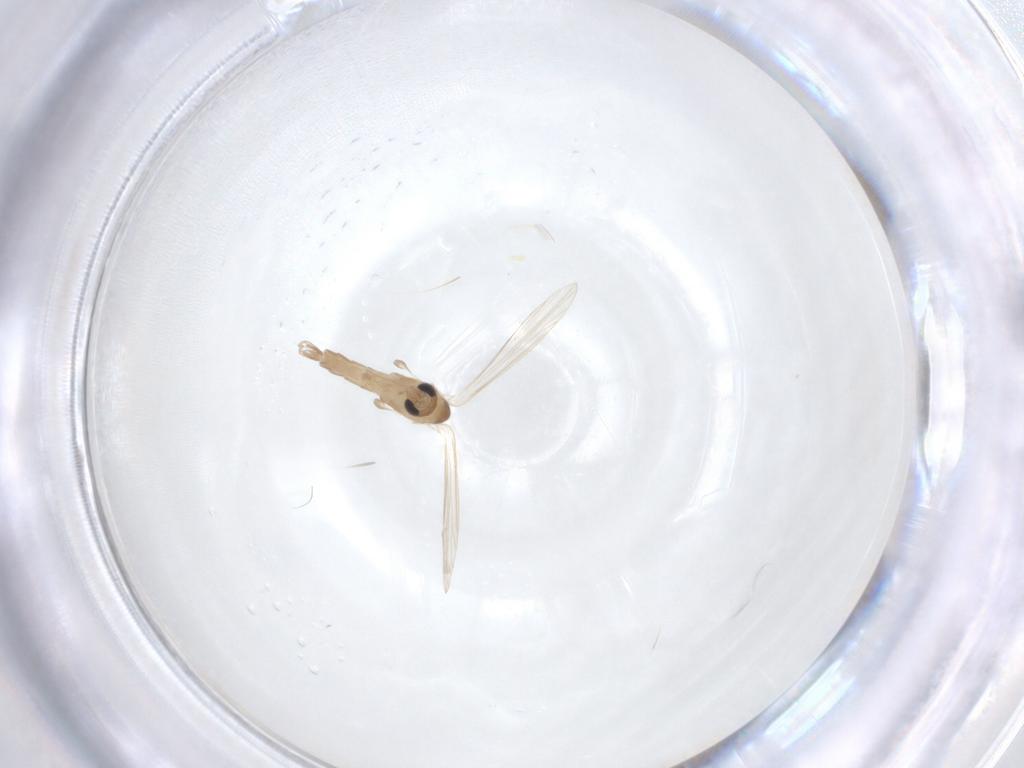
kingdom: Animalia
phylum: Arthropoda
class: Insecta
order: Diptera
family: Psychodidae
